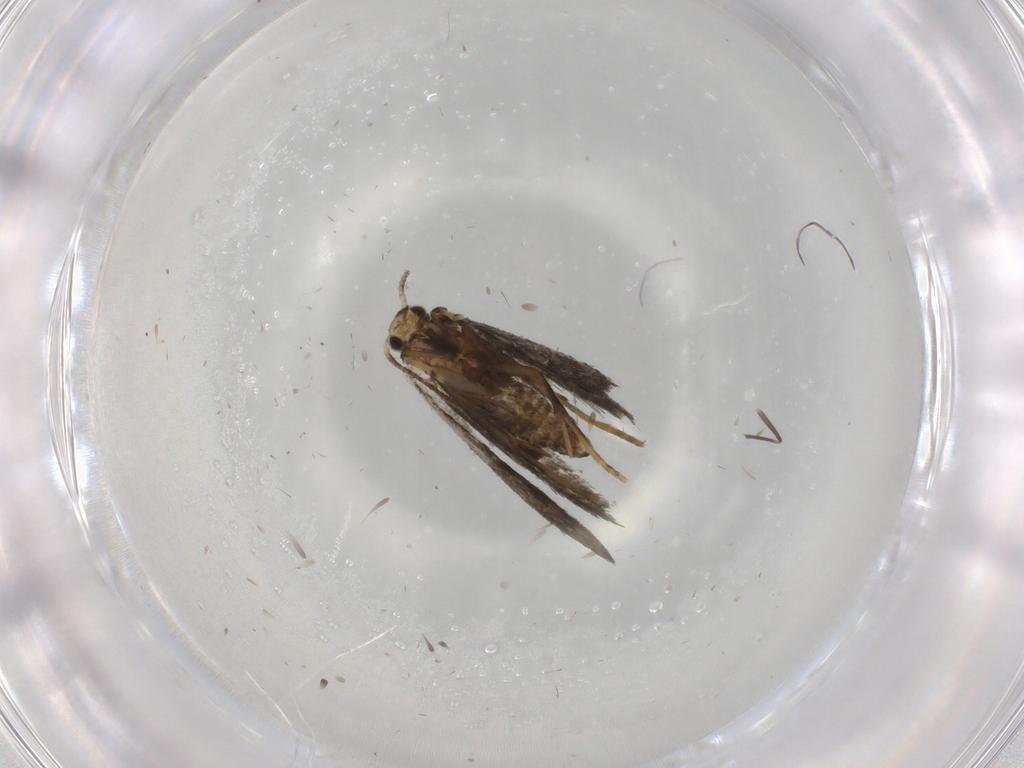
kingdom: Animalia
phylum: Arthropoda
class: Insecta
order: Lepidoptera
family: Psychidae
